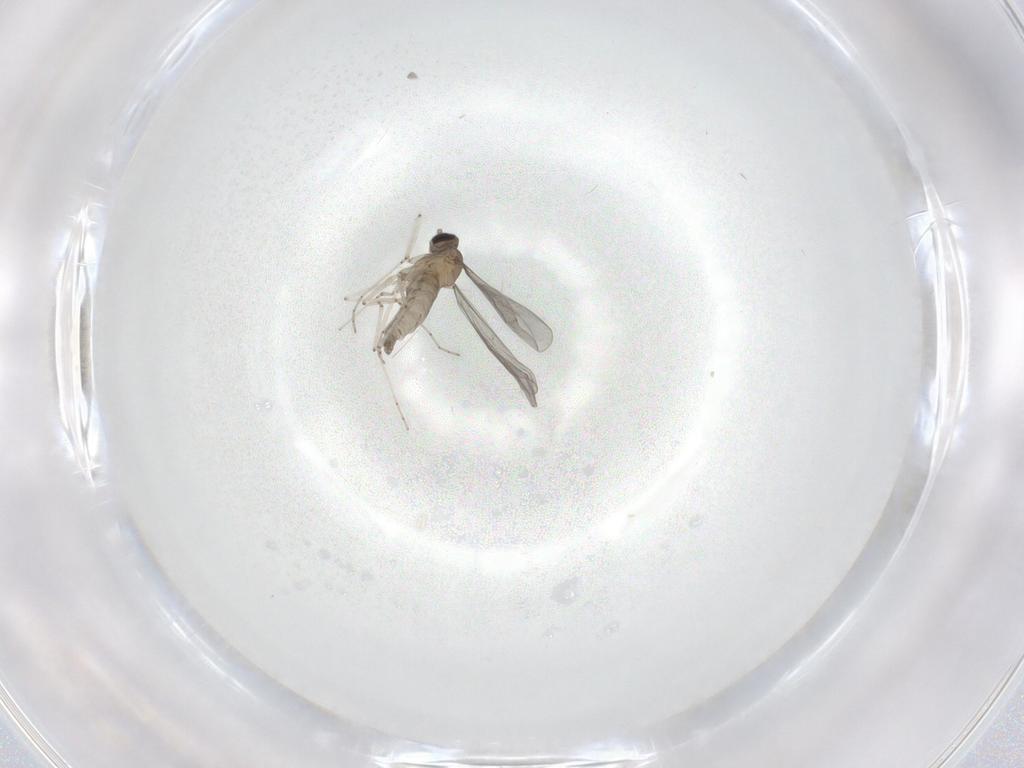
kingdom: Animalia
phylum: Arthropoda
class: Insecta
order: Diptera
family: Cecidomyiidae
